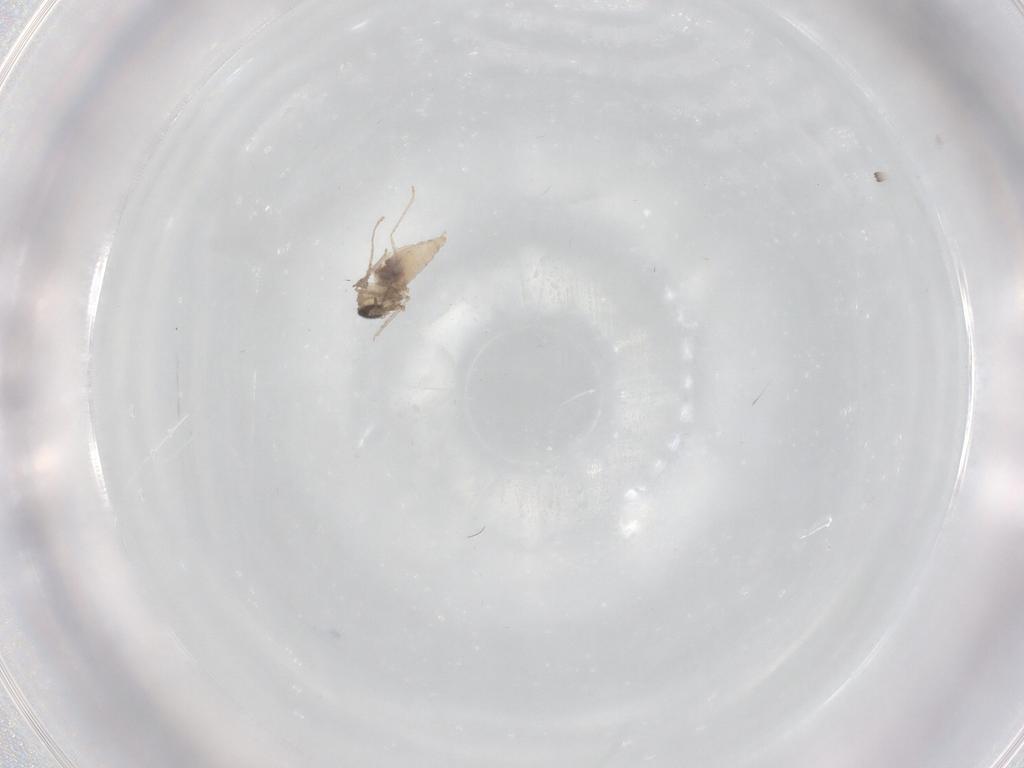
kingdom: Animalia
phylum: Arthropoda
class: Insecta
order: Diptera
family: Cecidomyiidae
